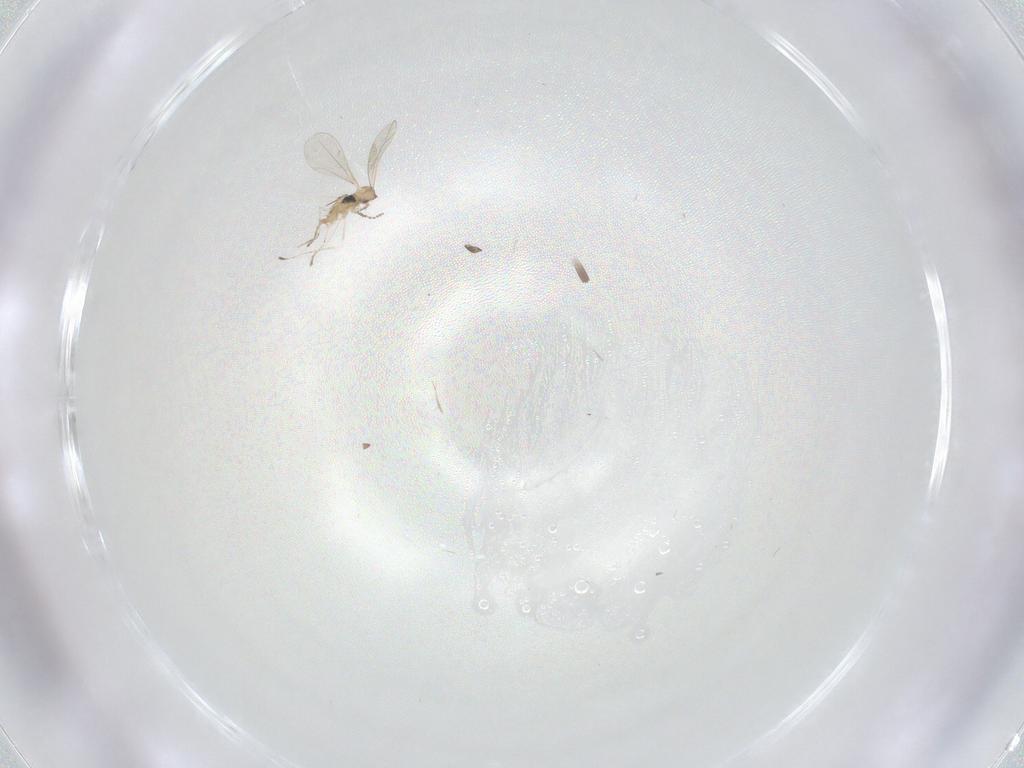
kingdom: Animalia
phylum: Arthropoda
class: Insecta
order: Diptera
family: Cecidomyiidae
